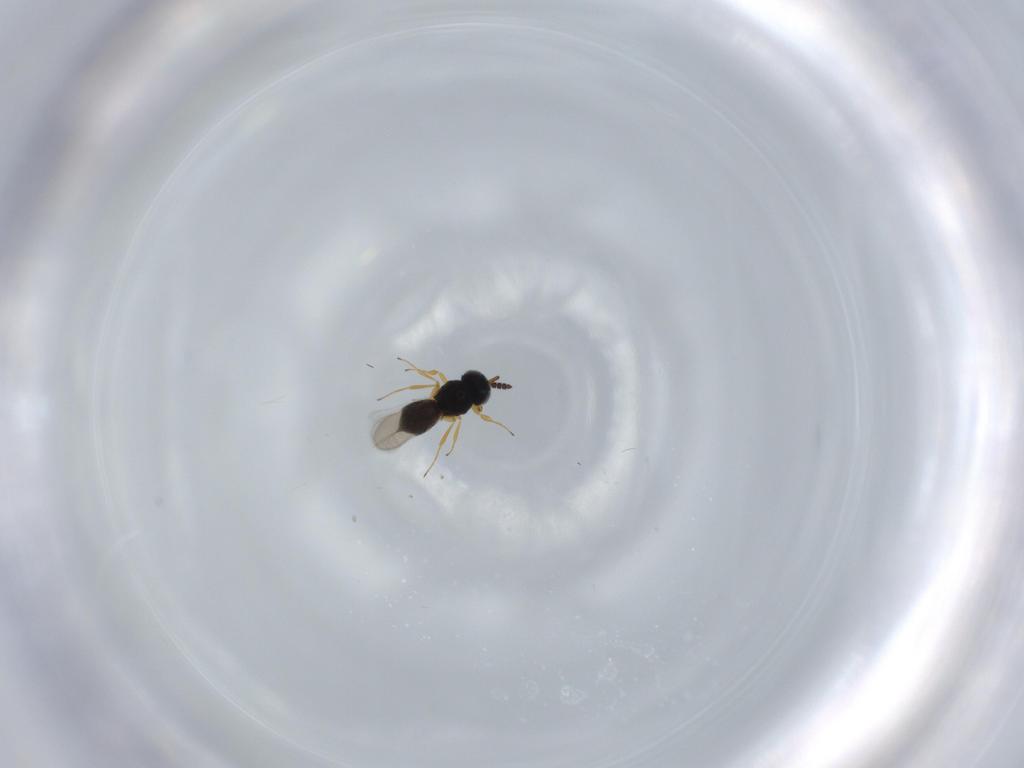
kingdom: Animalia
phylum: Arthropoda
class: Insecta
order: Hymenoptera
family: Scelionidae
